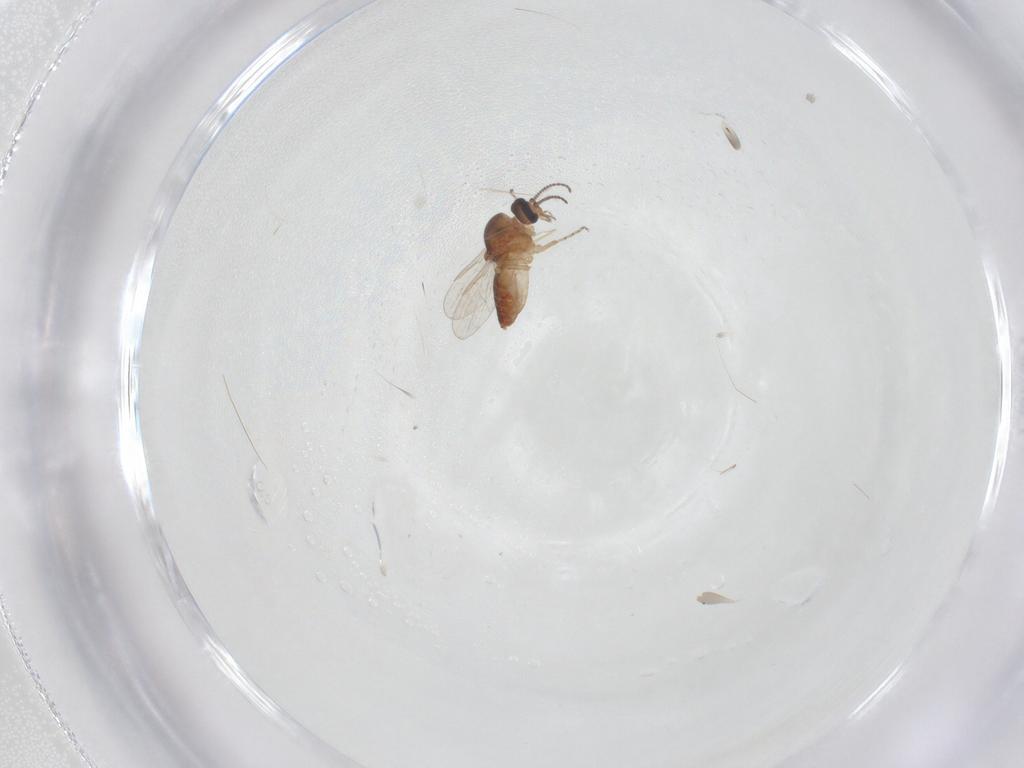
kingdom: Animalia
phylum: Arthropoda
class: Insecta
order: Diptera
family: Ceratopogonidae
